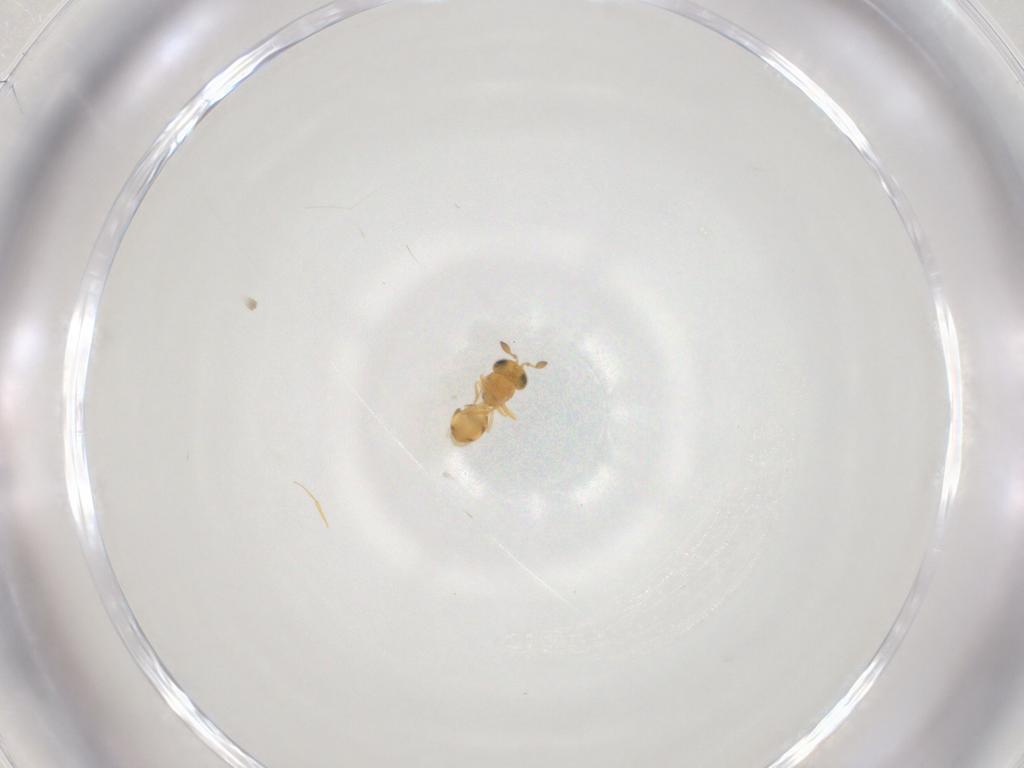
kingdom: Animalia
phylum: Arthropoda
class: Insecta
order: Hymenoptera
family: Scelionidae
